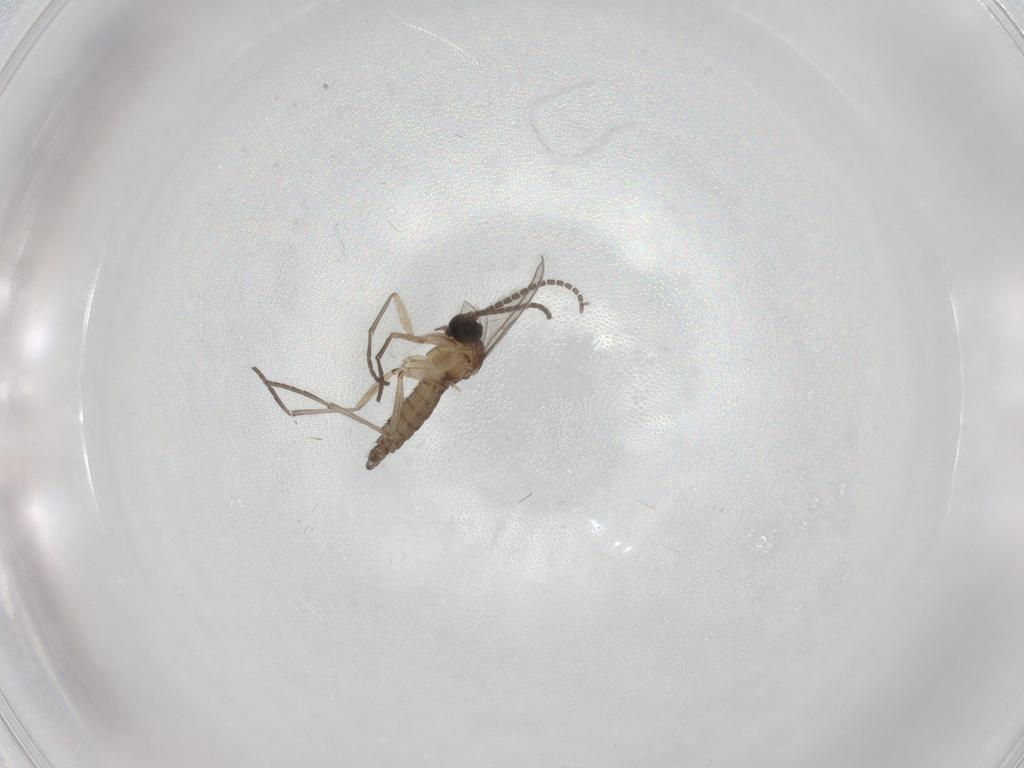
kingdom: Animalia
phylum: Arthropoda
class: Insecta
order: Diptera
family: Sciaridae
